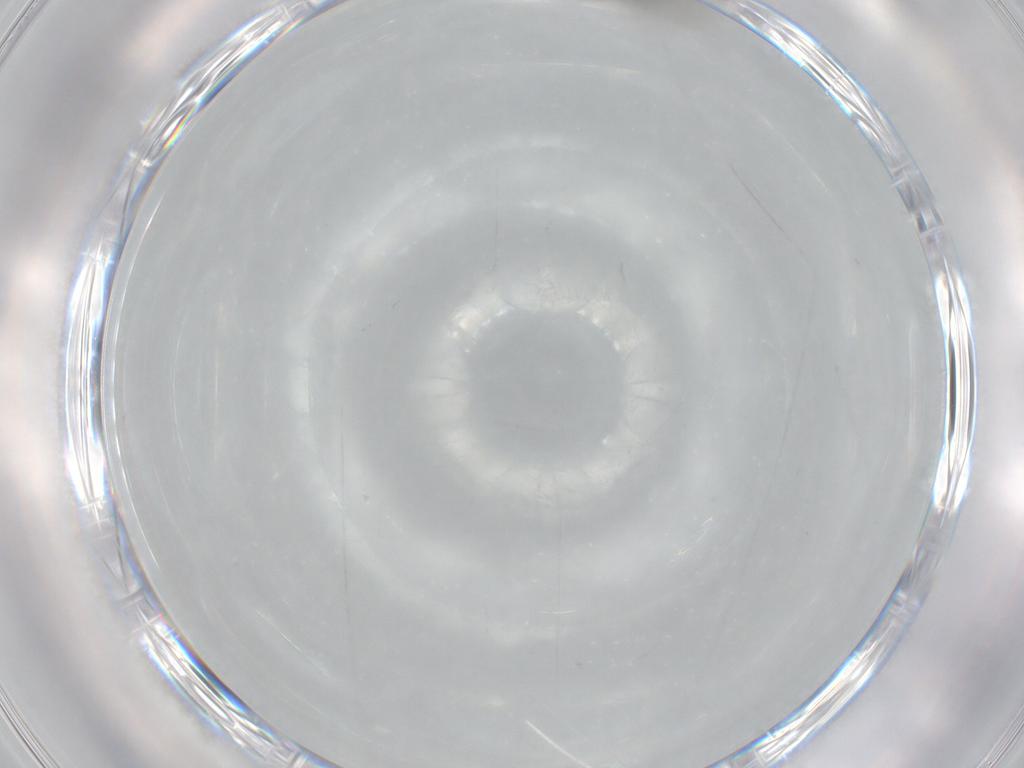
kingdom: Animalia
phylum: Arthropoda
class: Insecta
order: Hymenoptera
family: Scelionidae
